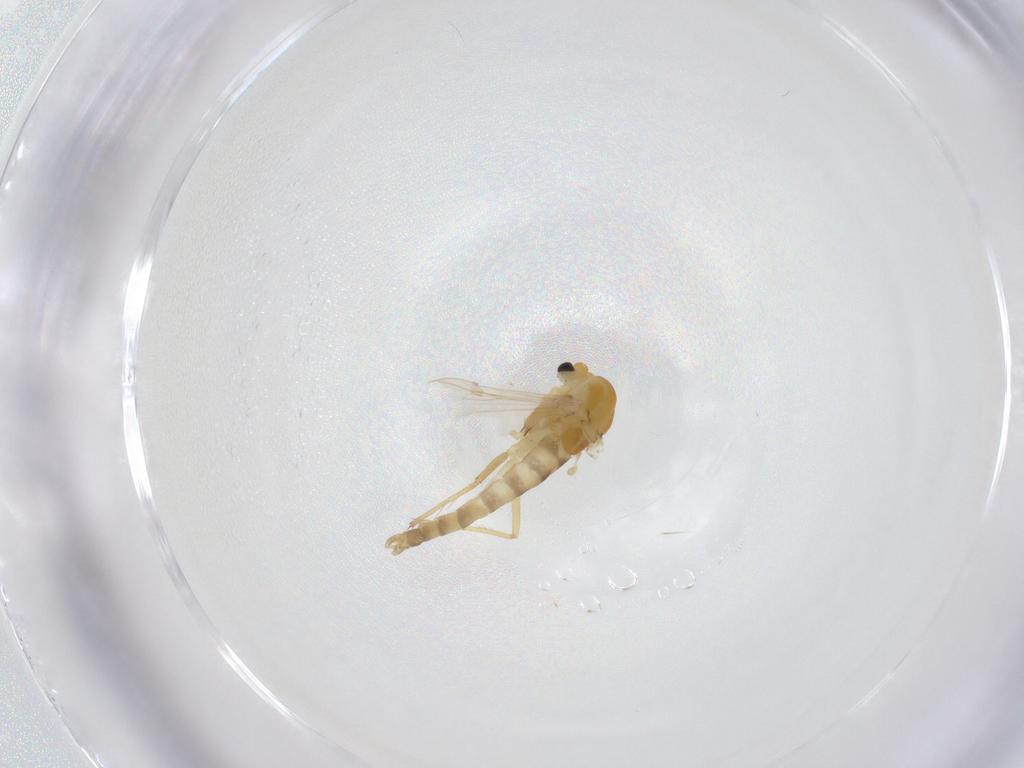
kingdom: Animalia
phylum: Arthropoda
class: Insecta
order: Diptera
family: Chironomidae
